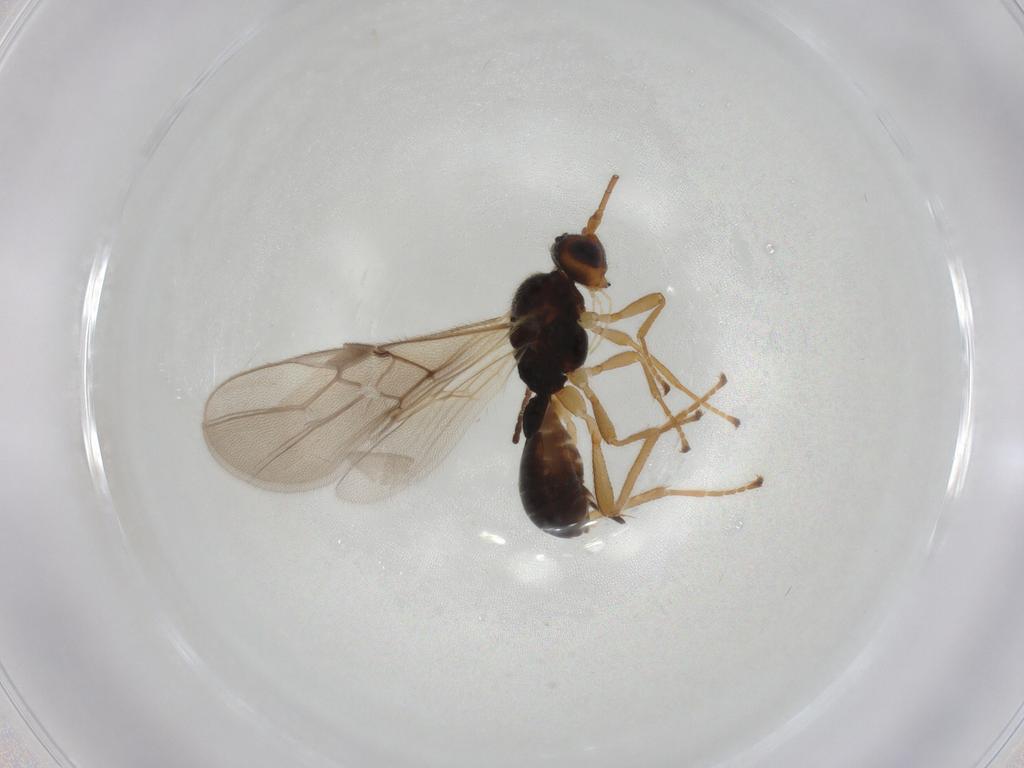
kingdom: Animalia
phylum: Arthropoda
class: Insecta
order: Hymenoptera
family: Braconidae
